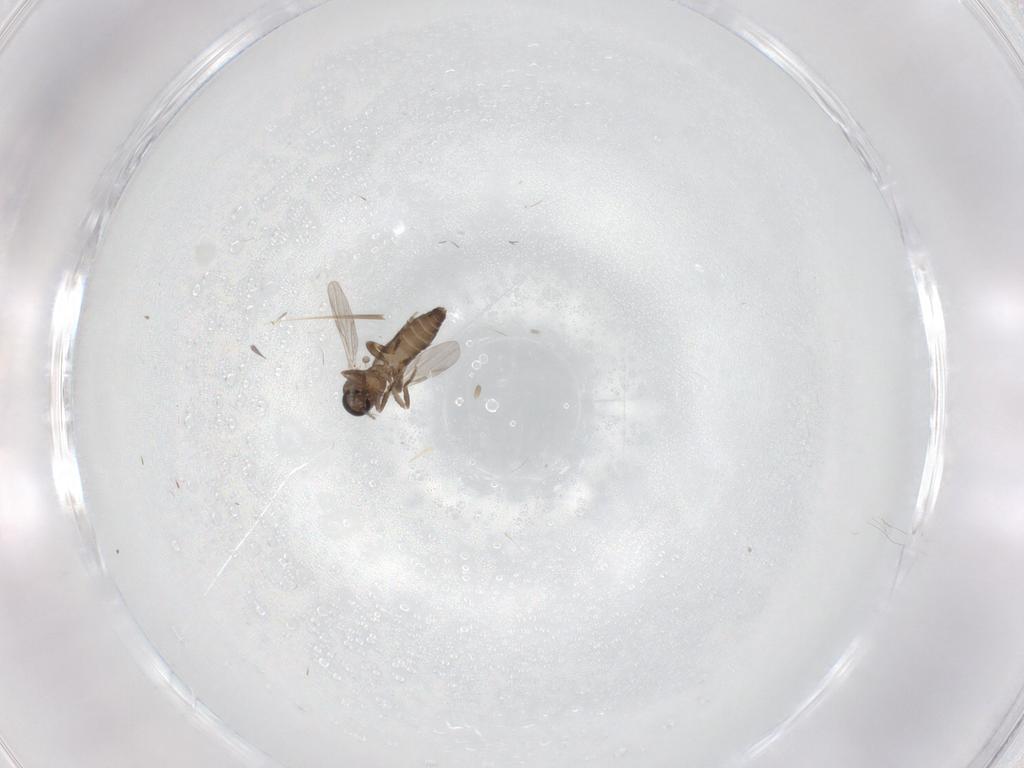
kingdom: Animalia
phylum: Arthropoda
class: Insecta
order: Diptera
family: Ceratopogonidae
